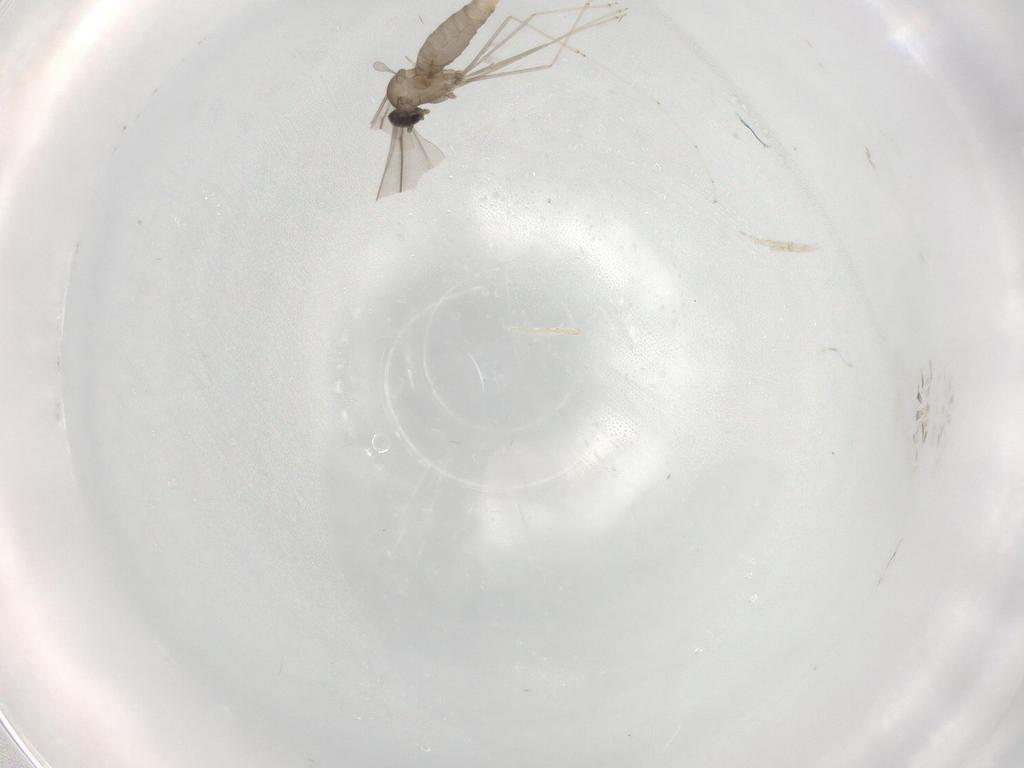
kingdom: Animalia
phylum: Arthropoda
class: Insecta
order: Diptera
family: Cecidomyiidae
